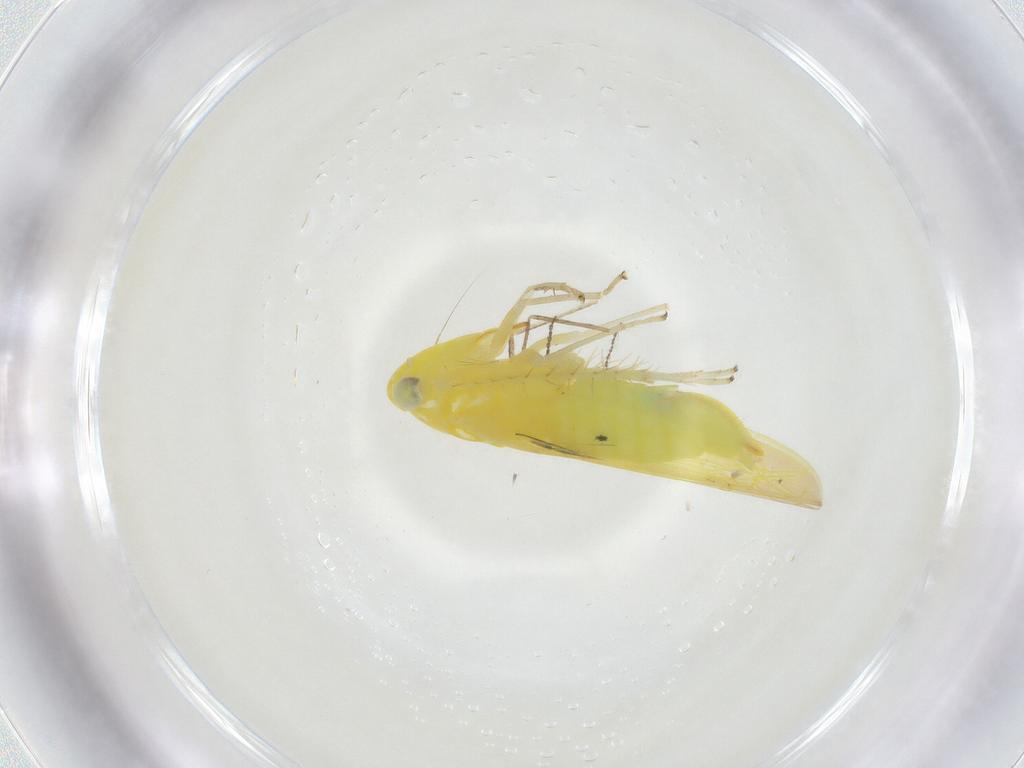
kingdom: Animalia
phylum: Arthropoda
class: Insecta
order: Hemiptera
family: Cicadellidae
